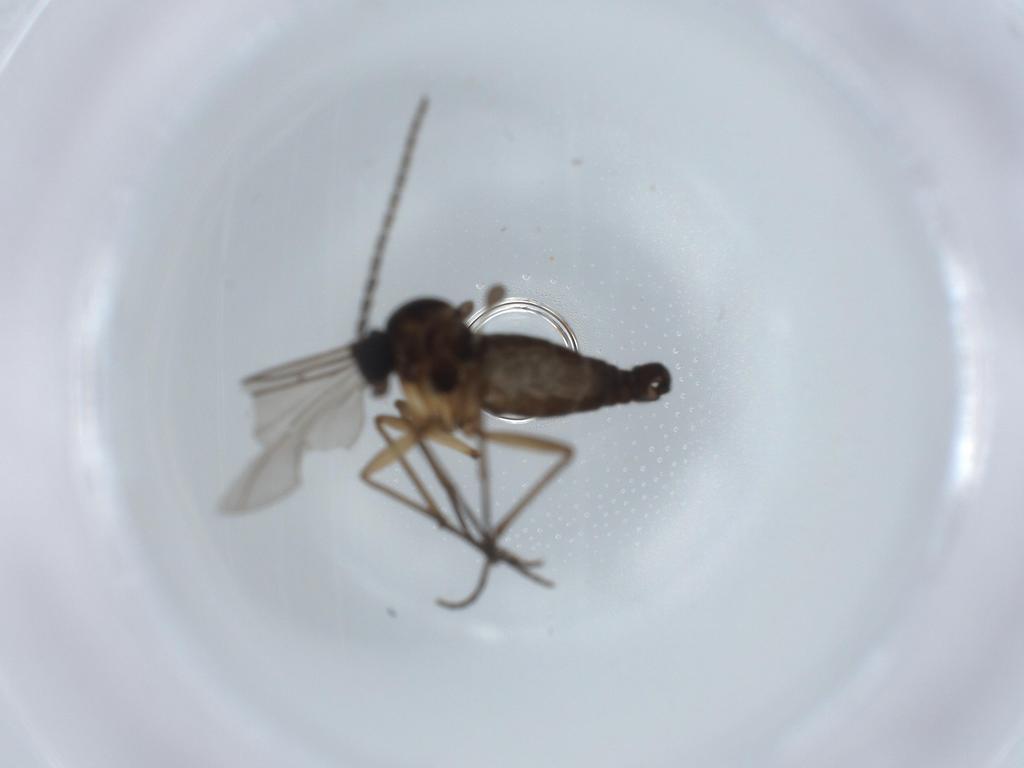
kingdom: Animalia
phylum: Arthropoda
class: Insecta
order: Diptera
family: Sciaridae
